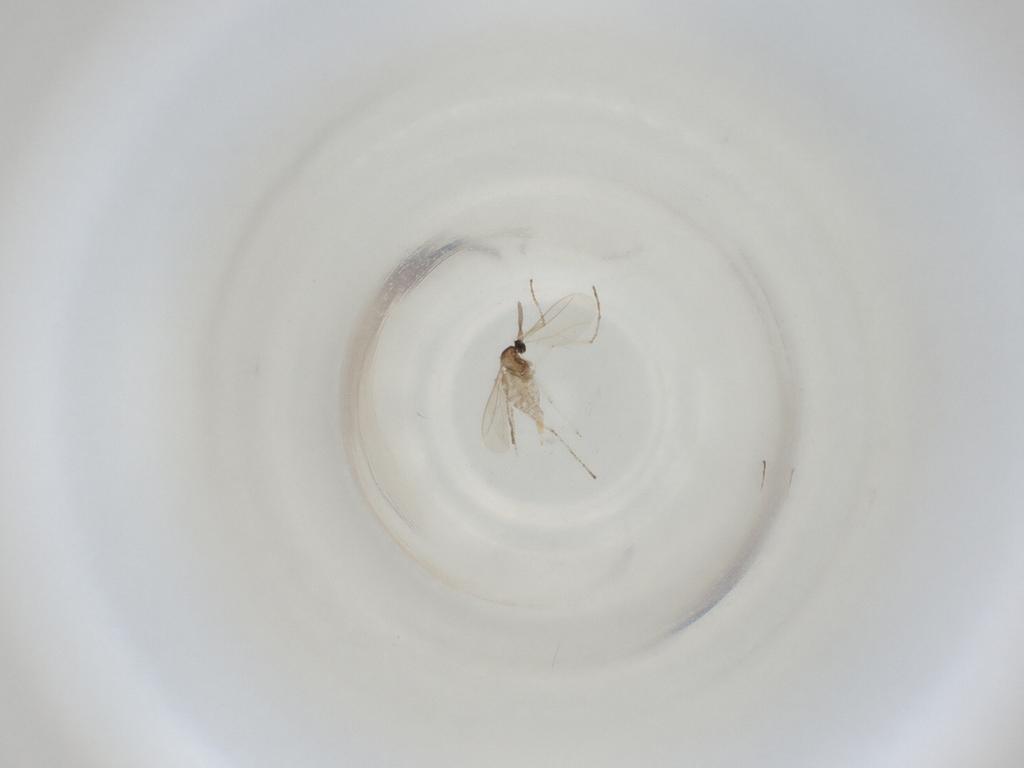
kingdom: Animalia
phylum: Arthropoda
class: Insecta
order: Diptera
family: Cecidomyiidae
